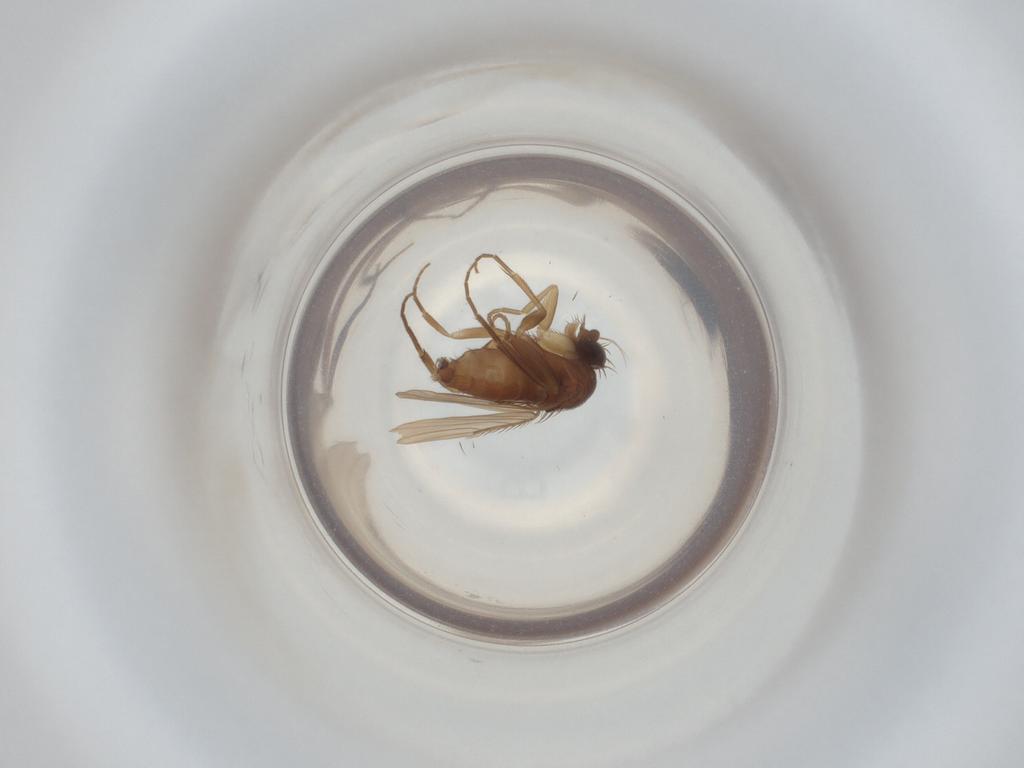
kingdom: Animalia
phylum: Arthropoda
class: Insecta
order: Diptera
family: Phoridae
